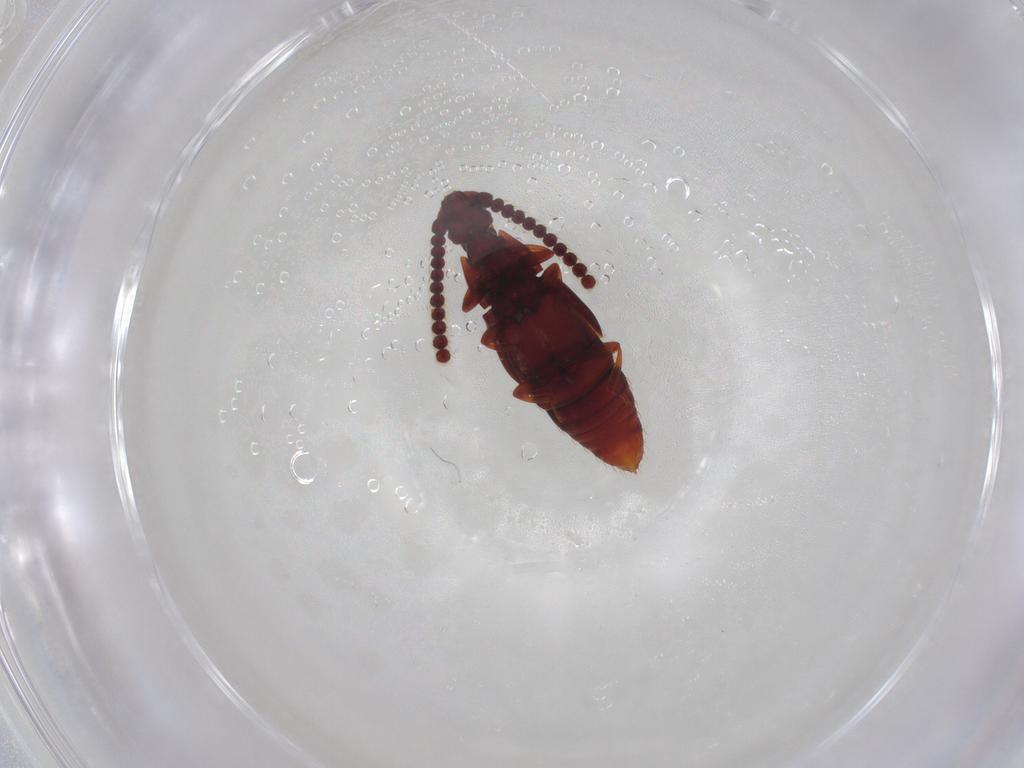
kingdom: Animalia
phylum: Arthropoda
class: Insecta
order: Coleoptera
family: Staphylinidae
